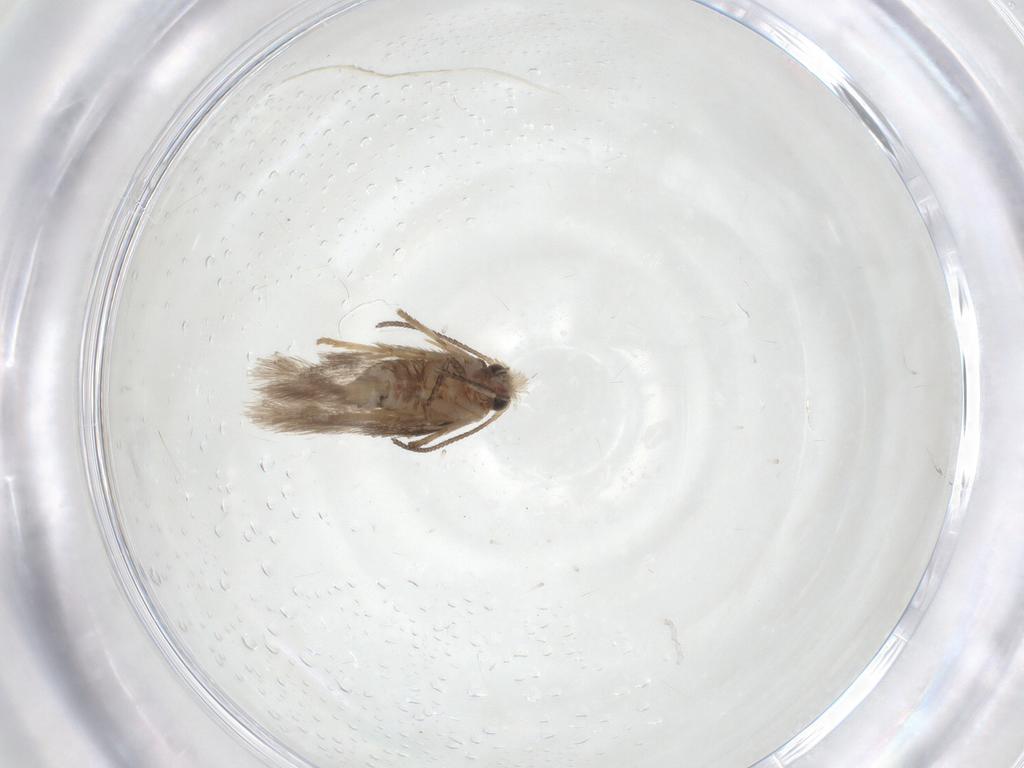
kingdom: Animalia
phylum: Arthropoda
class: Insecta
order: Lepidoptera
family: Nepticulidae
